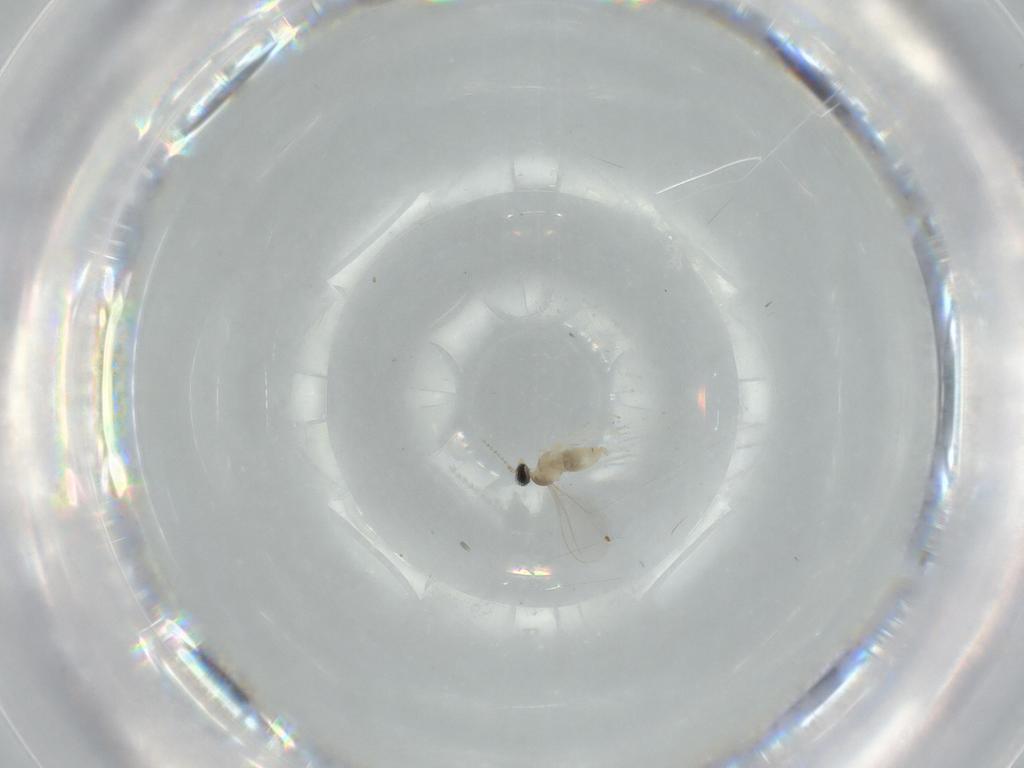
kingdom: Animalia
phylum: Arthropoda
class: Insecta
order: Diptera
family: Cecidomyiidae
